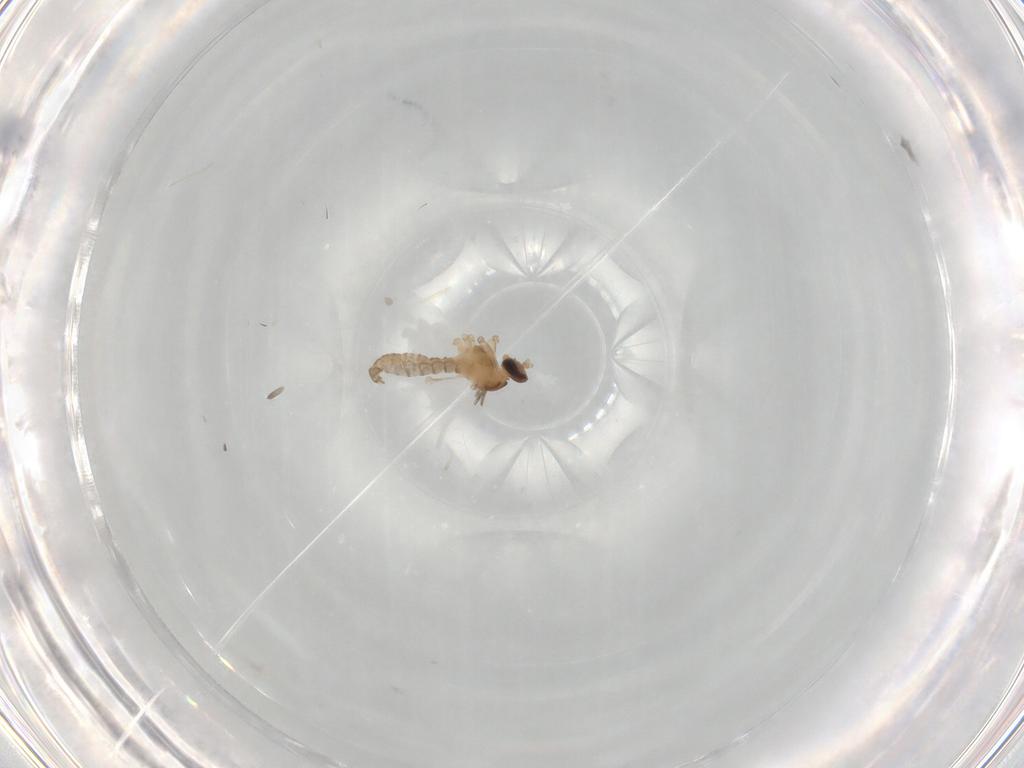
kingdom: Animalia
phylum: Arthropoda
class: Insecta
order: Diptera
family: Cecidomyiidae
